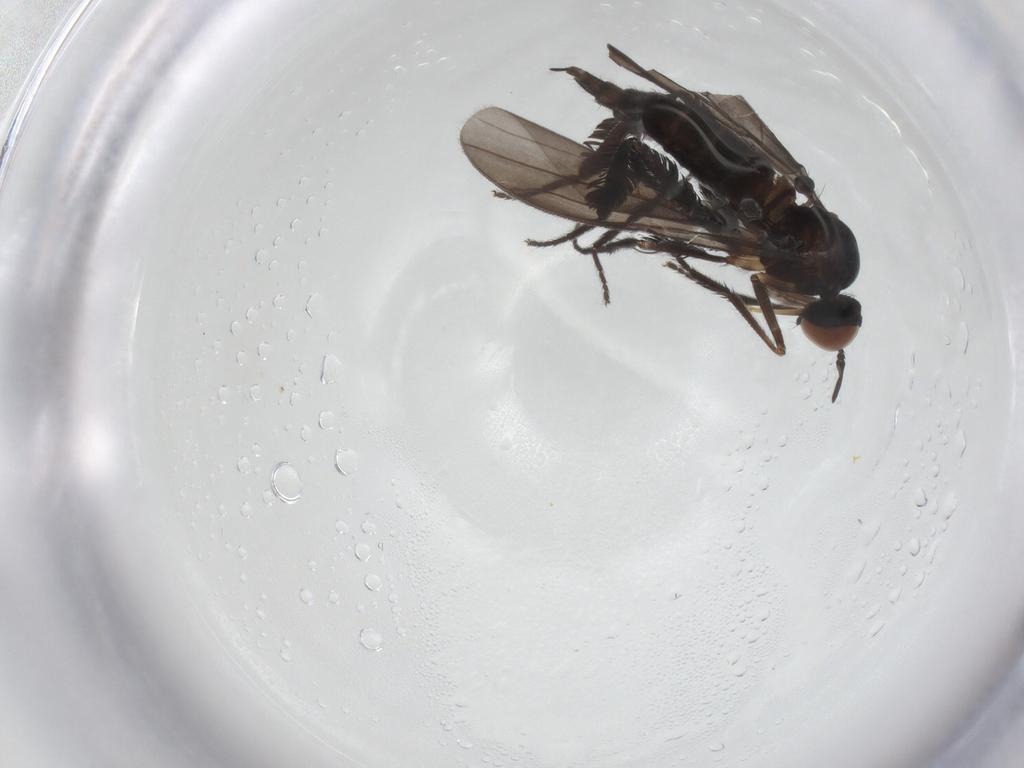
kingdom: Animalia
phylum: Arthropoda
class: Insecta
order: Diptera
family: Empididae
